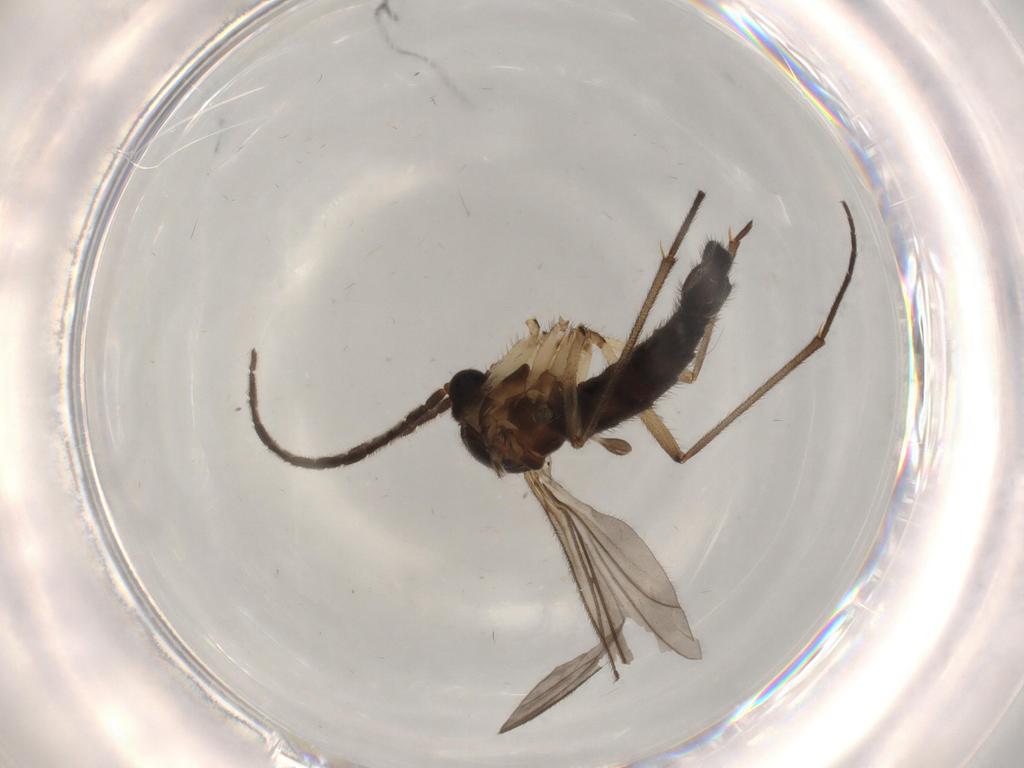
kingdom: Animalia
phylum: Arthropoda
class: Insecta
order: Diptera
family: Sciaridae
